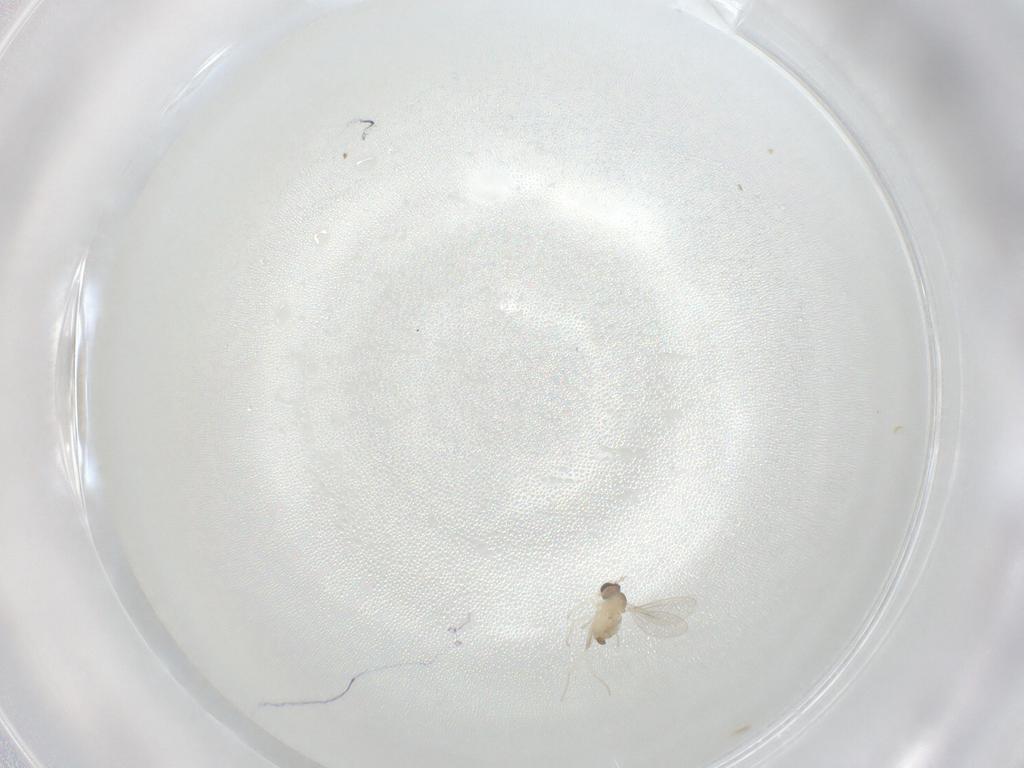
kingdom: Animalia
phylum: Arthropoda
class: Insecta
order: Diptera
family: Cecidomyiidae
